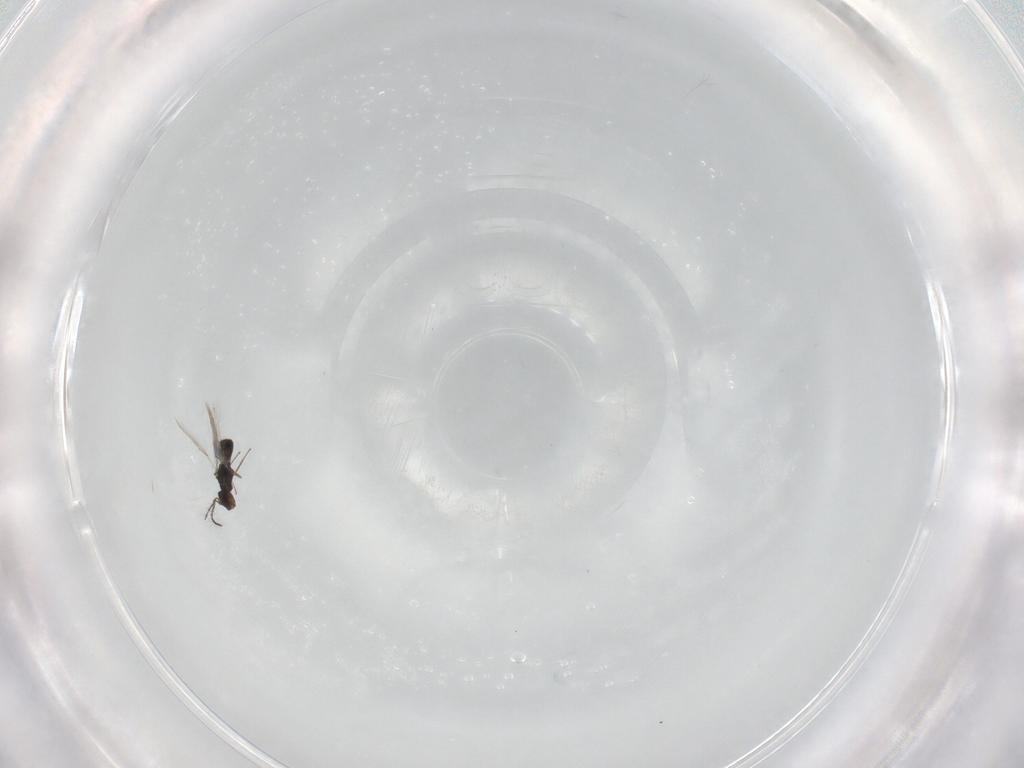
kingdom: Animalia
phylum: Arthropoda
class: Insecta
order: Hymenoptera
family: Pteromalidae
